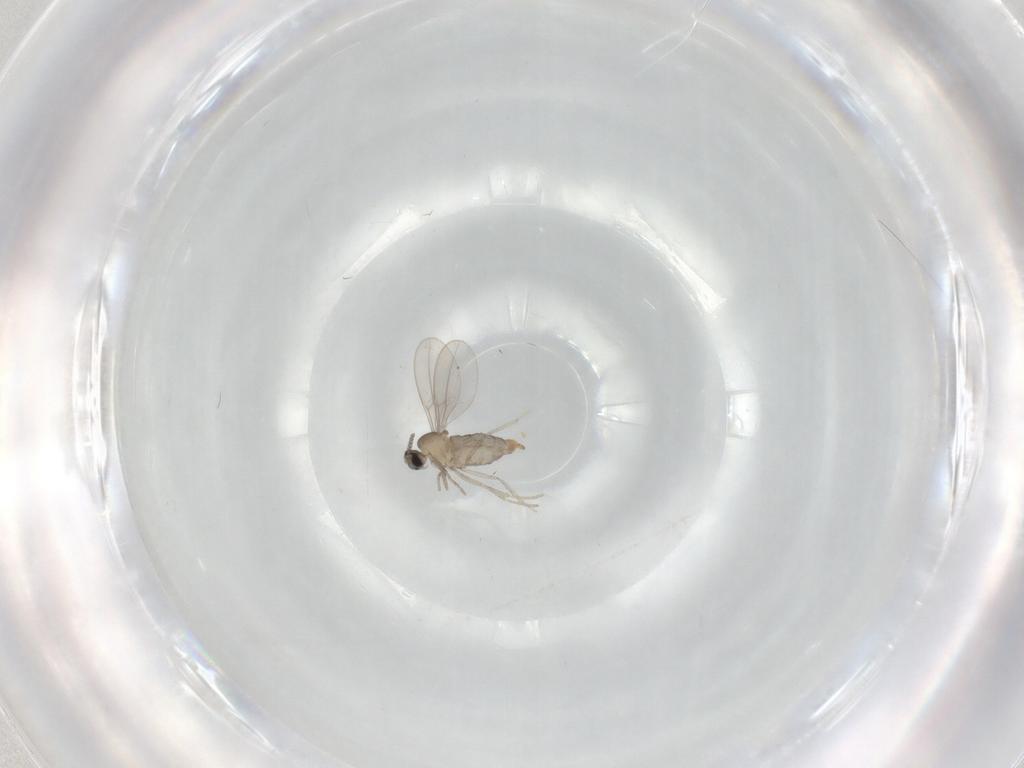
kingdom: Animalia
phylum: Arthropoda
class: Insecta
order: Diptera
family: Cecidomyiidae
